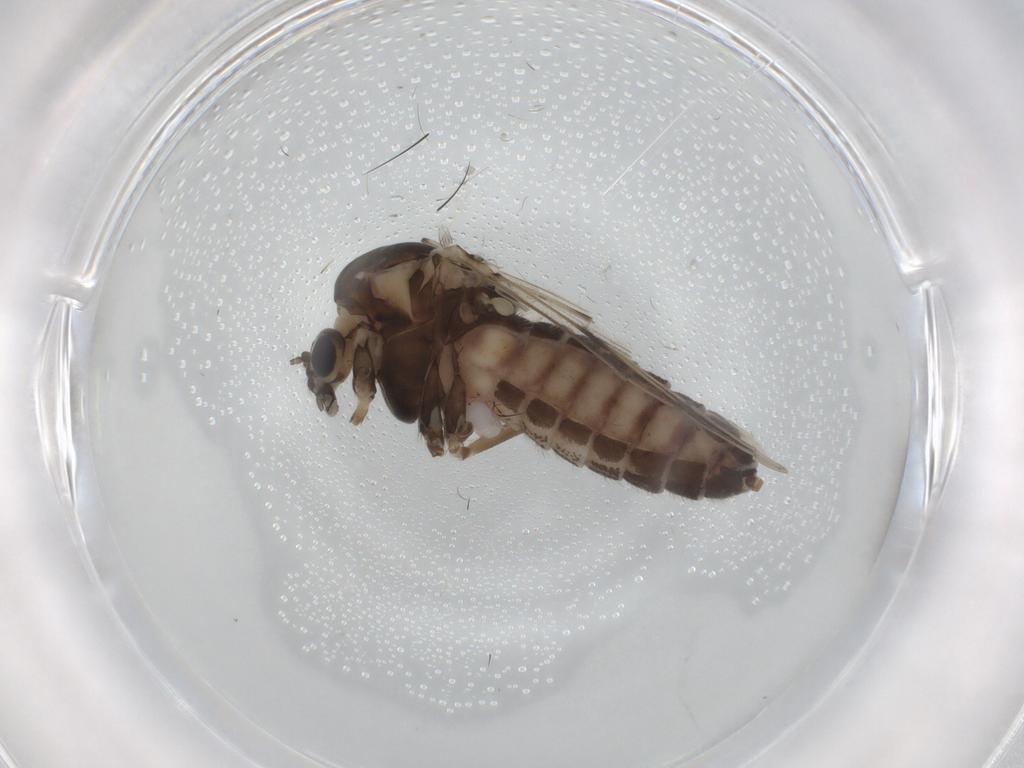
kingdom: Animalia
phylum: Arthropoda
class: Insecta
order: Diptera
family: Chironomidae
